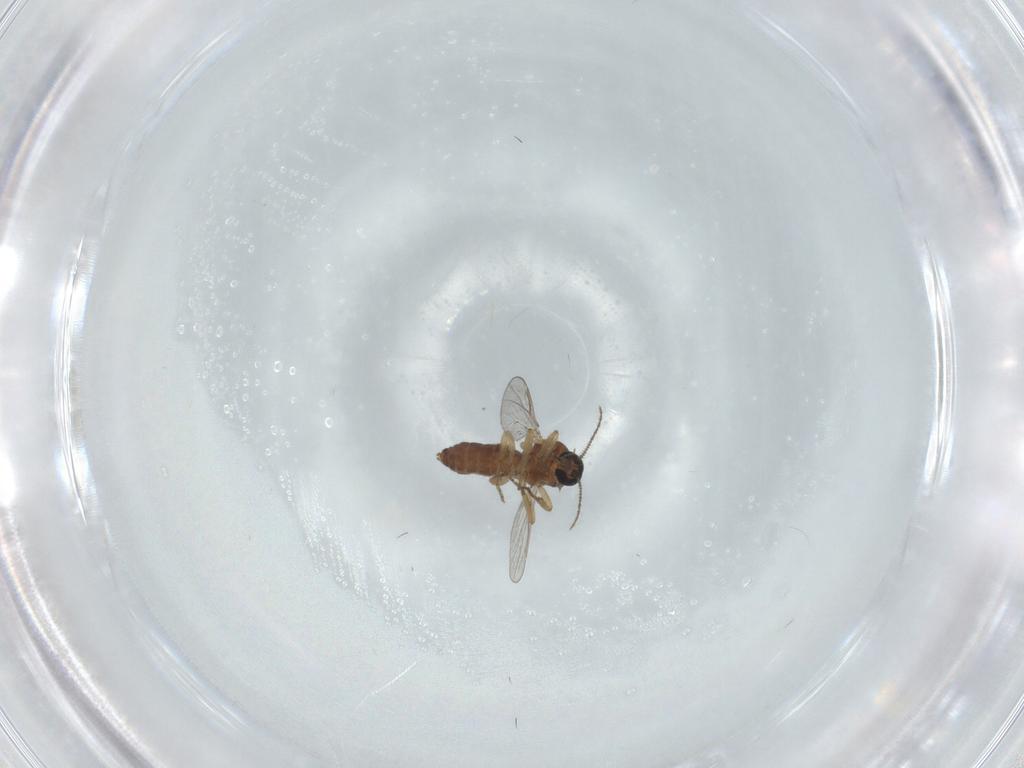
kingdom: Animalia
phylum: Arthropoda
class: Insecta
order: Diptera
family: Ceratopogonidae
